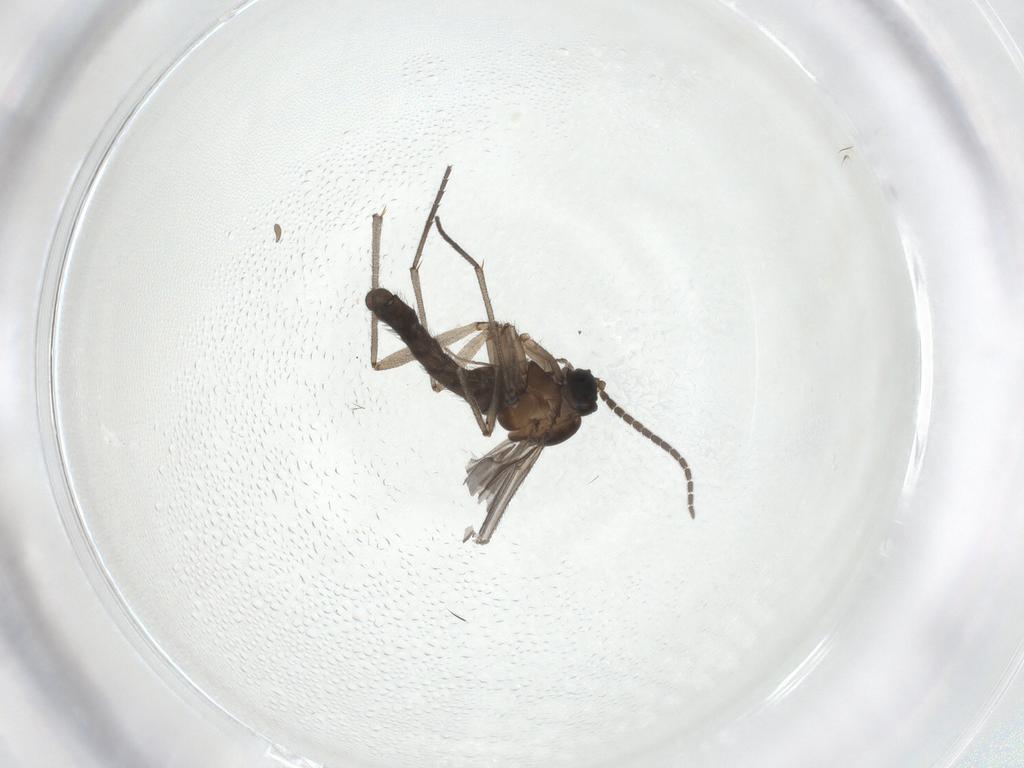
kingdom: Animalia
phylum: Arthropoda
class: Insecta
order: Diptera
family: Sciaridae
